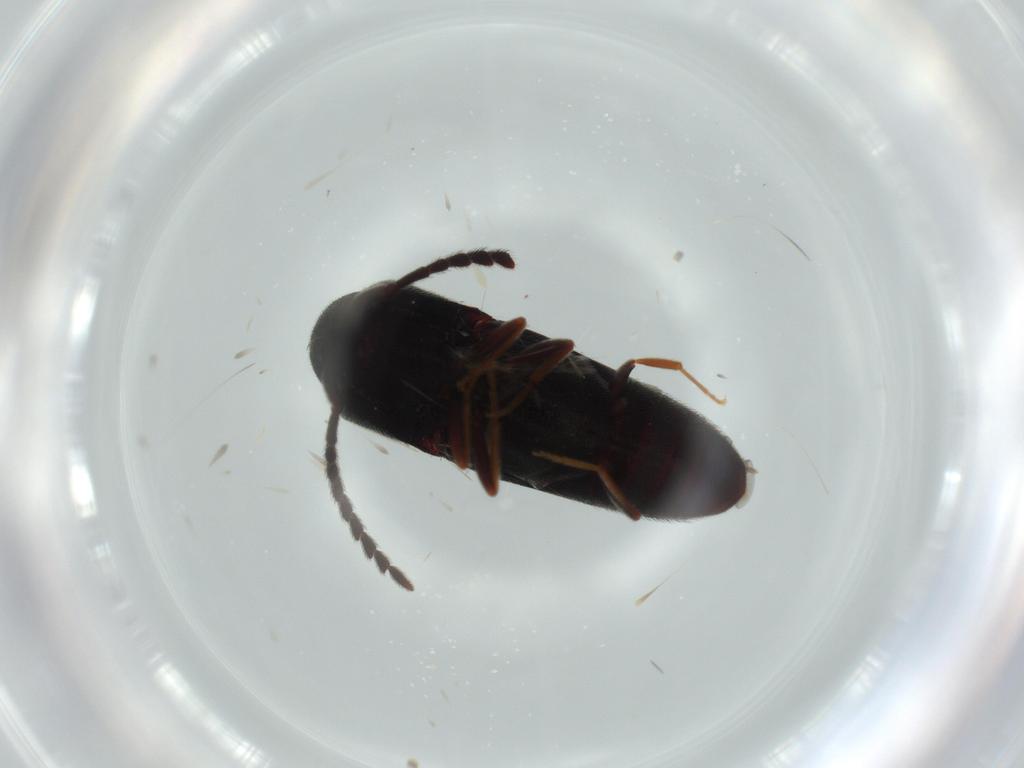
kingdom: Animalia
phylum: Arthropoda
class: Insecta
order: Coleoptera
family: Eucnemidae
